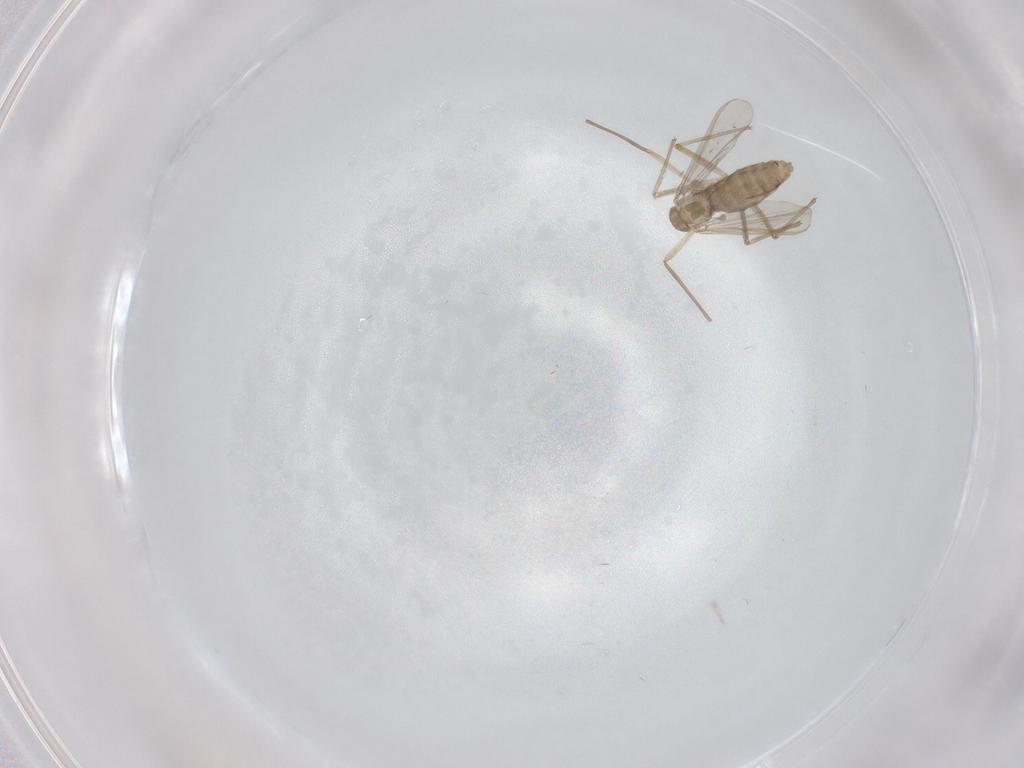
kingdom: Animalia
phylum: Arthropoda
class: Insecta
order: Diptera
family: Chironomidae
